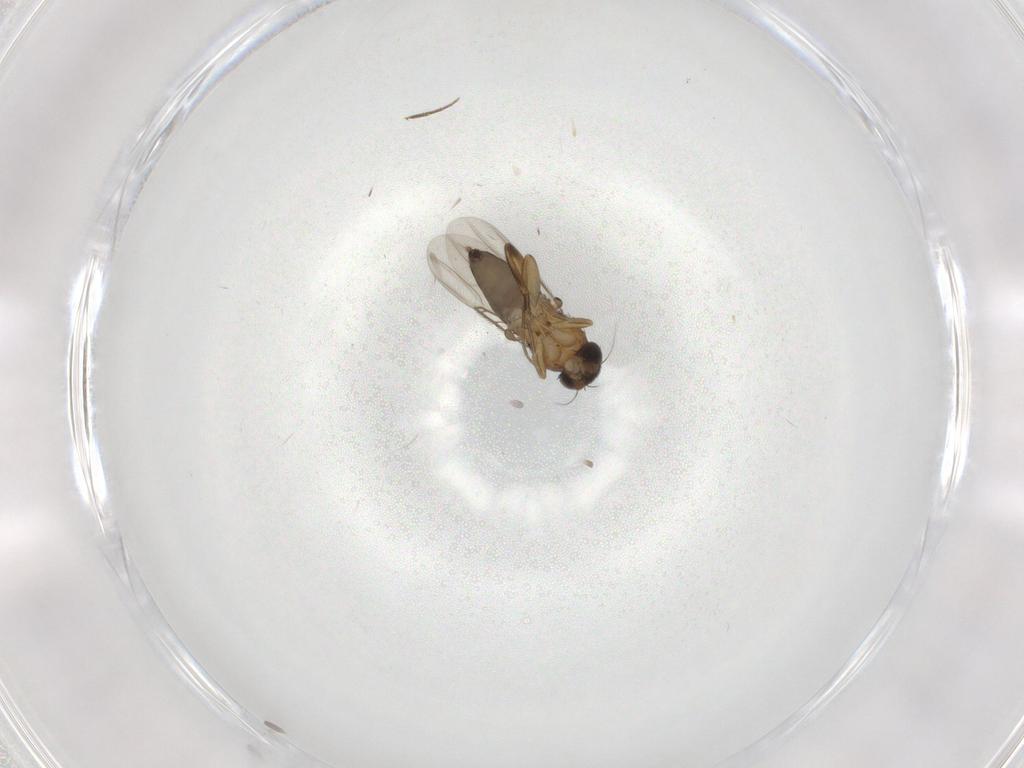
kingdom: Animalia
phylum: Arthropoda
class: Insecta
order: Diptera
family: Phoridae
